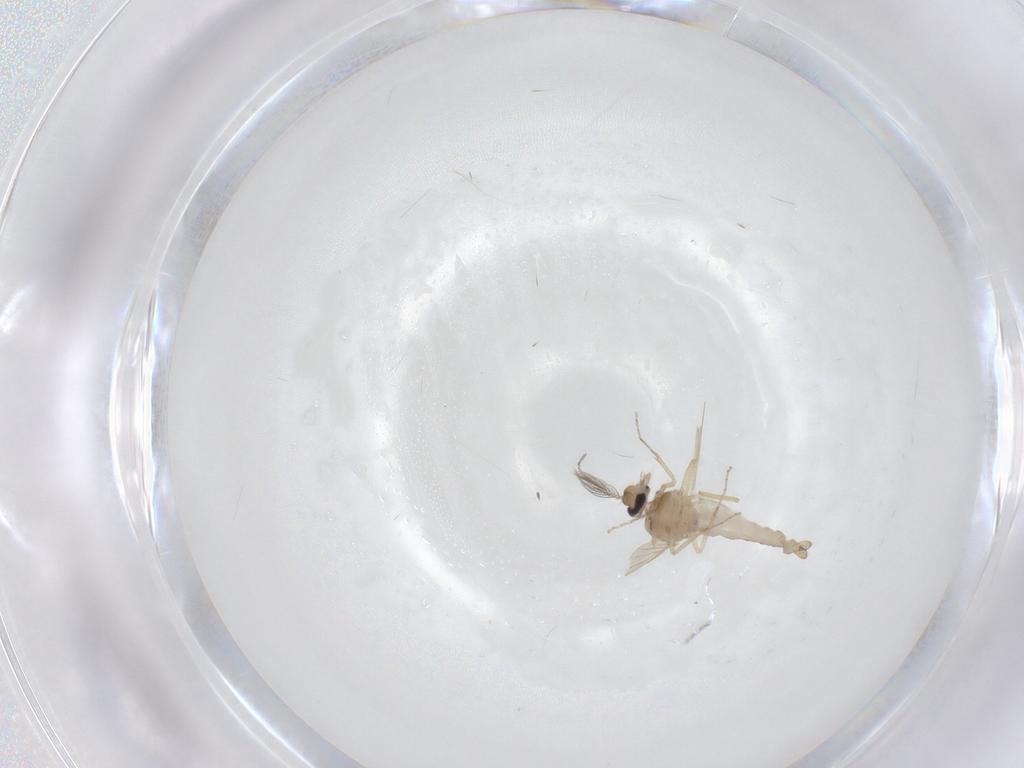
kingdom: Animalia
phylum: Arthropoda
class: Insecta
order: Diptera
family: Ceratopogonidae
